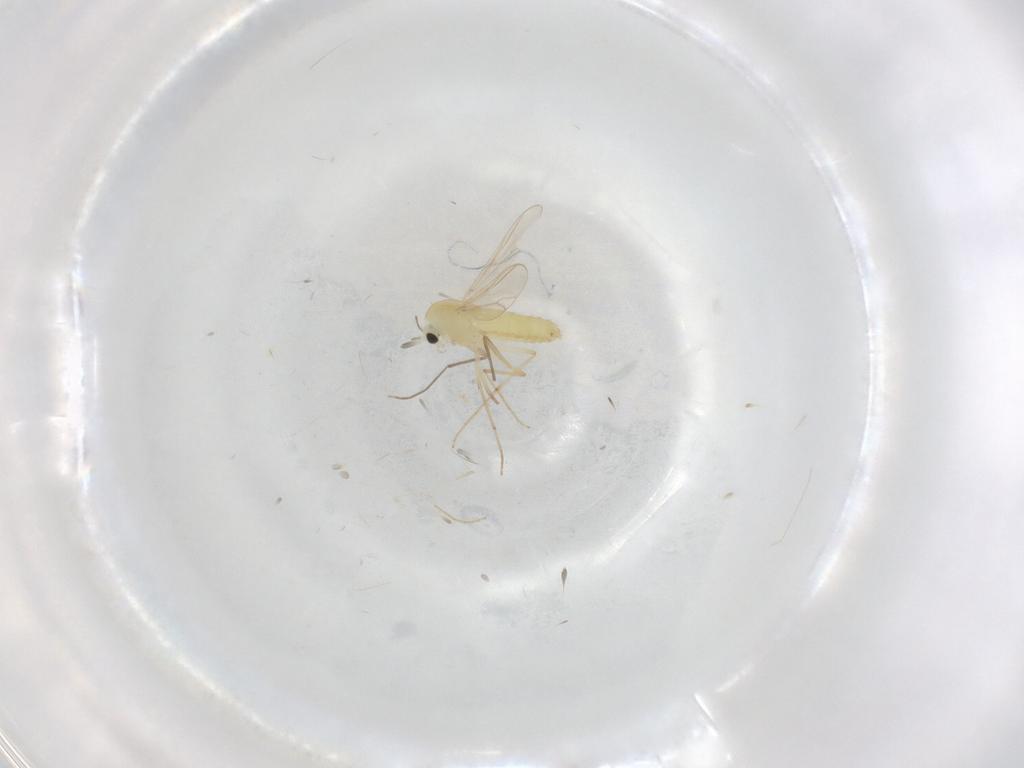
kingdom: Animalia
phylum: Arthropoda
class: Insecta
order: Diptera
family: Chironomidae
